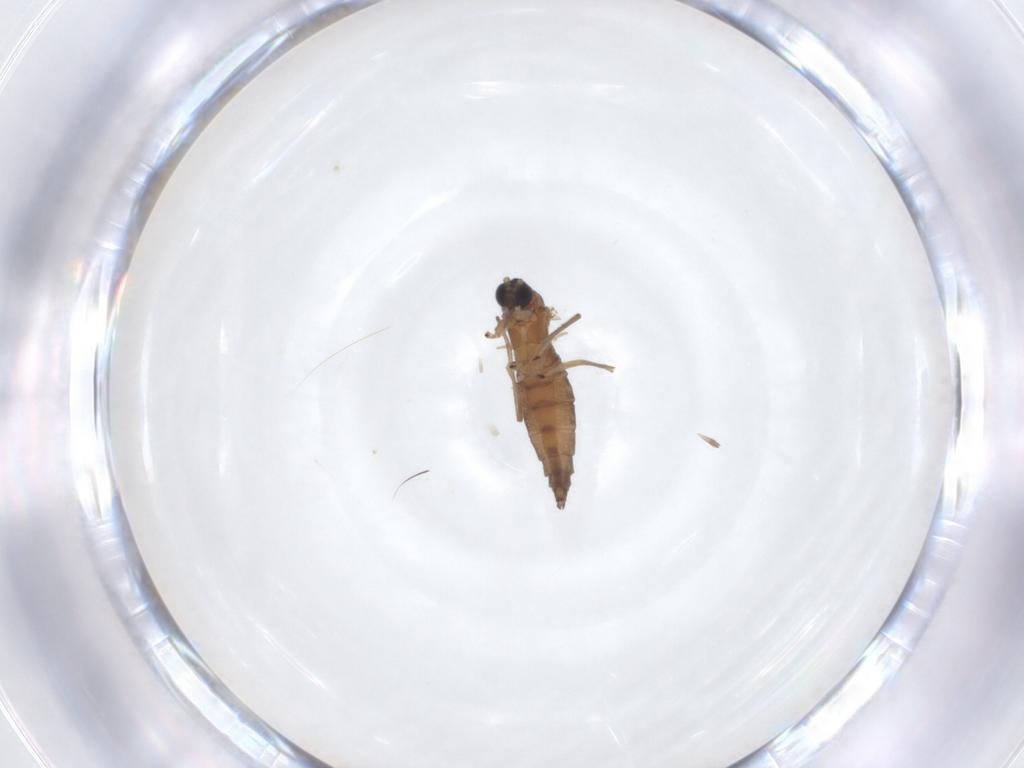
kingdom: Animalia
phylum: Arthropoda
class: Insecta
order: Diptera
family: Sciaridae
